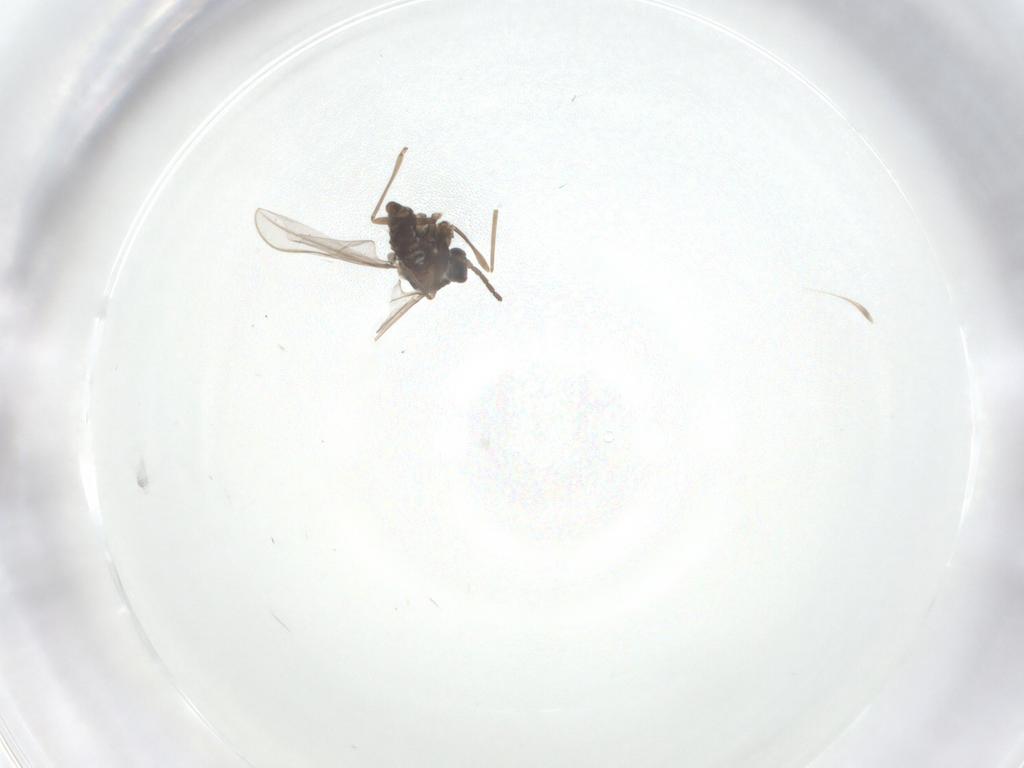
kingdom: Animalia
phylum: Arthropoda
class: Insecta
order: Diptera
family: Cecidomyiidae
